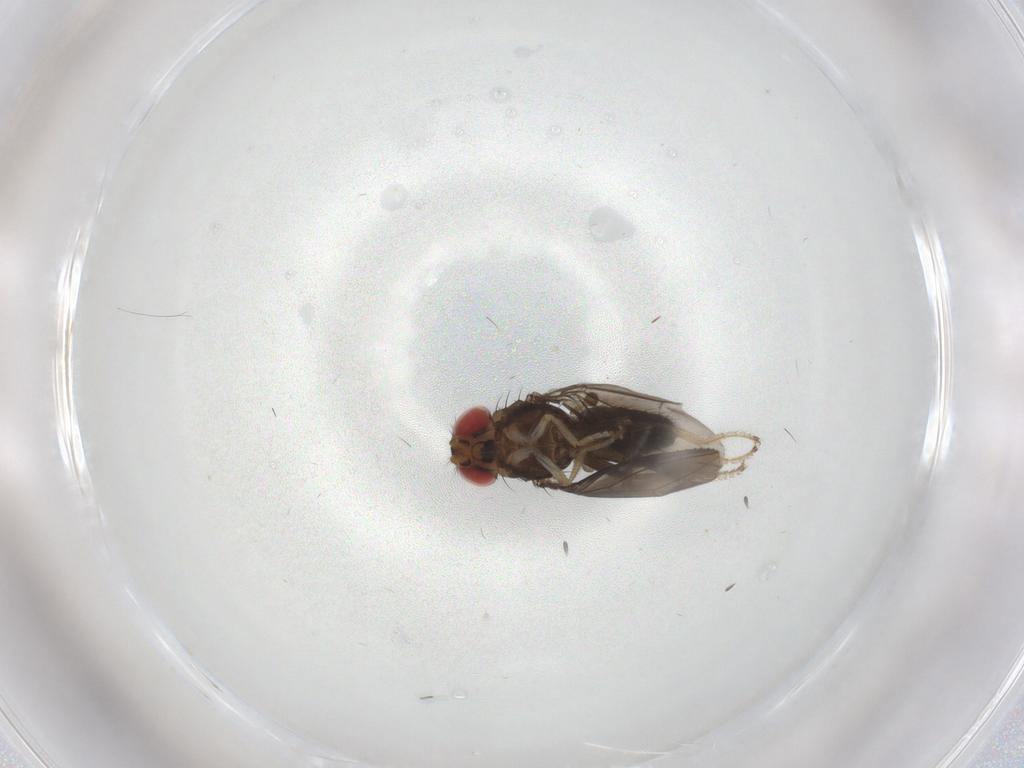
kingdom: Animalia
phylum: Arthropoda
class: Insecta
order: Diptera
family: Drosophilidae
